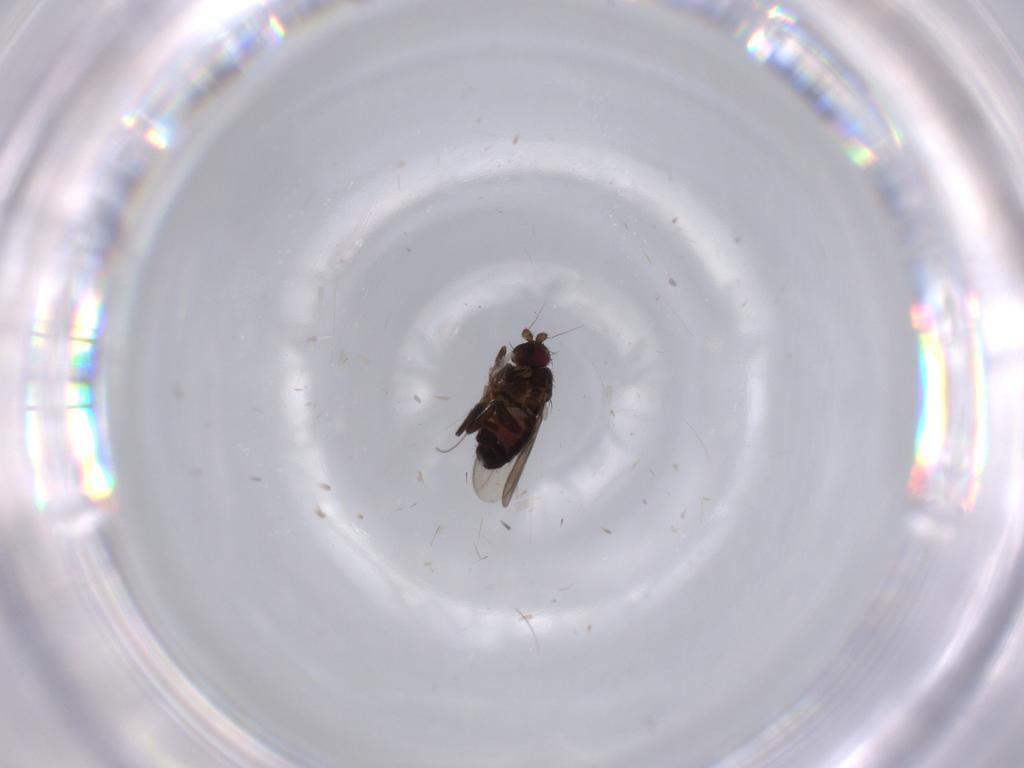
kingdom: Animalia
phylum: Arthropoda
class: Insecta
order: Diptera
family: Sphaeroceridae
